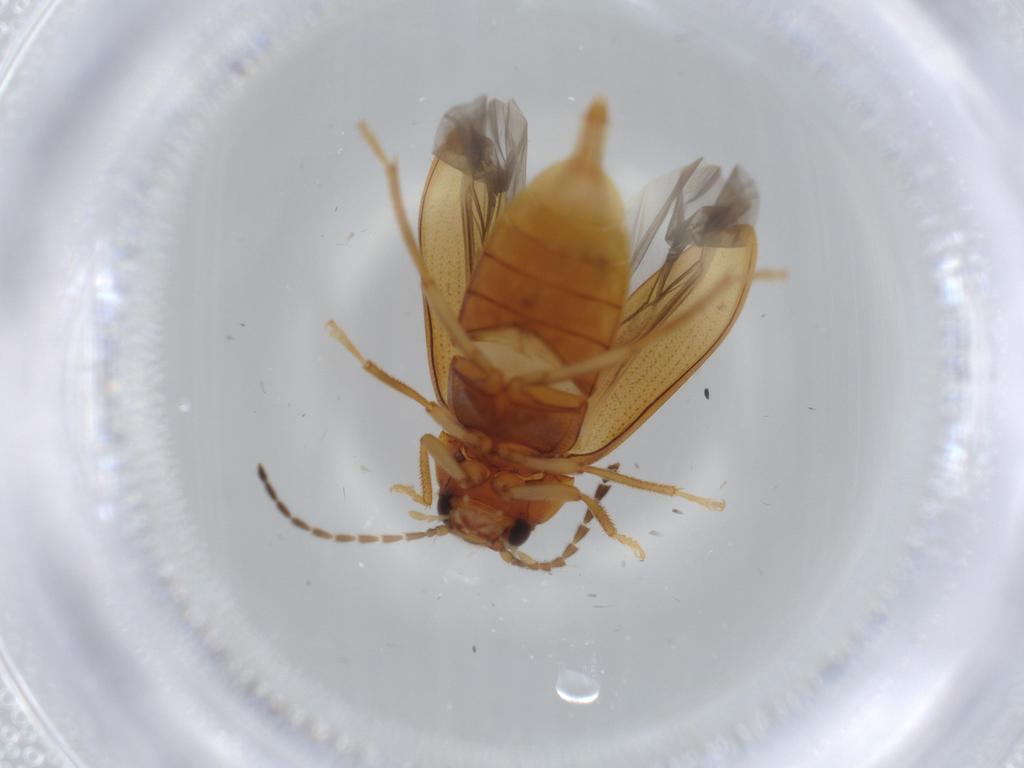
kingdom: Animalia
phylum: Arthropoda
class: Insecta
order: Coleoptera
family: Ptilodactylidae
